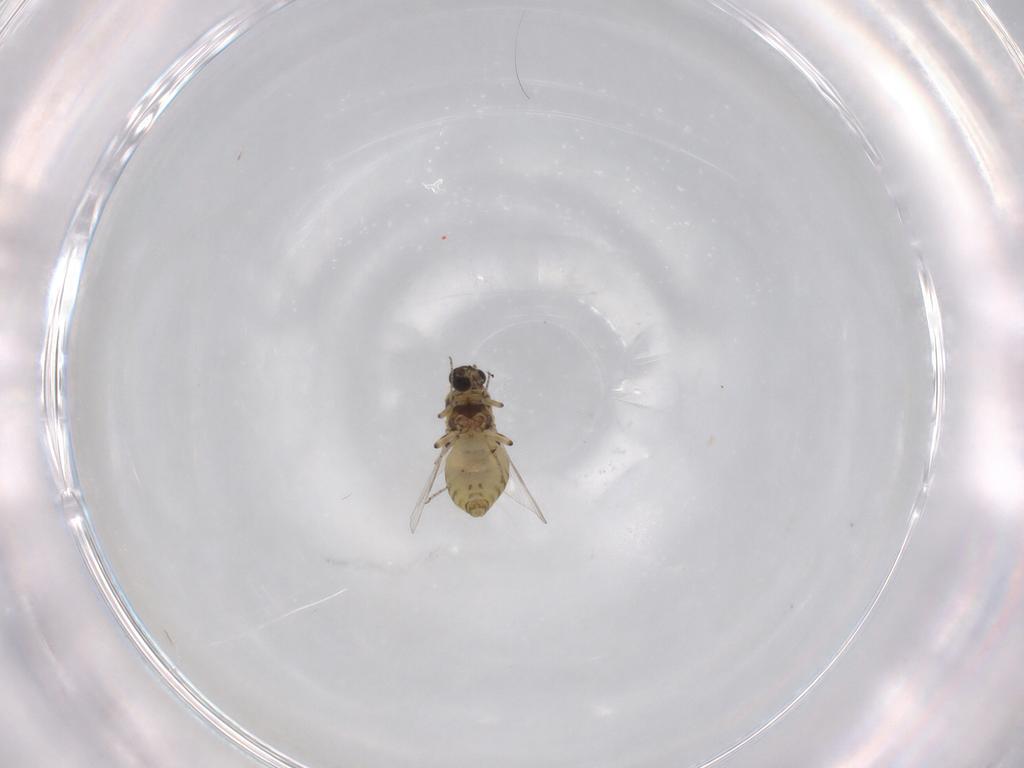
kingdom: Animalia
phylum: Arthropoda
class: Insecta
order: Diptera
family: Ceratopogonidae
